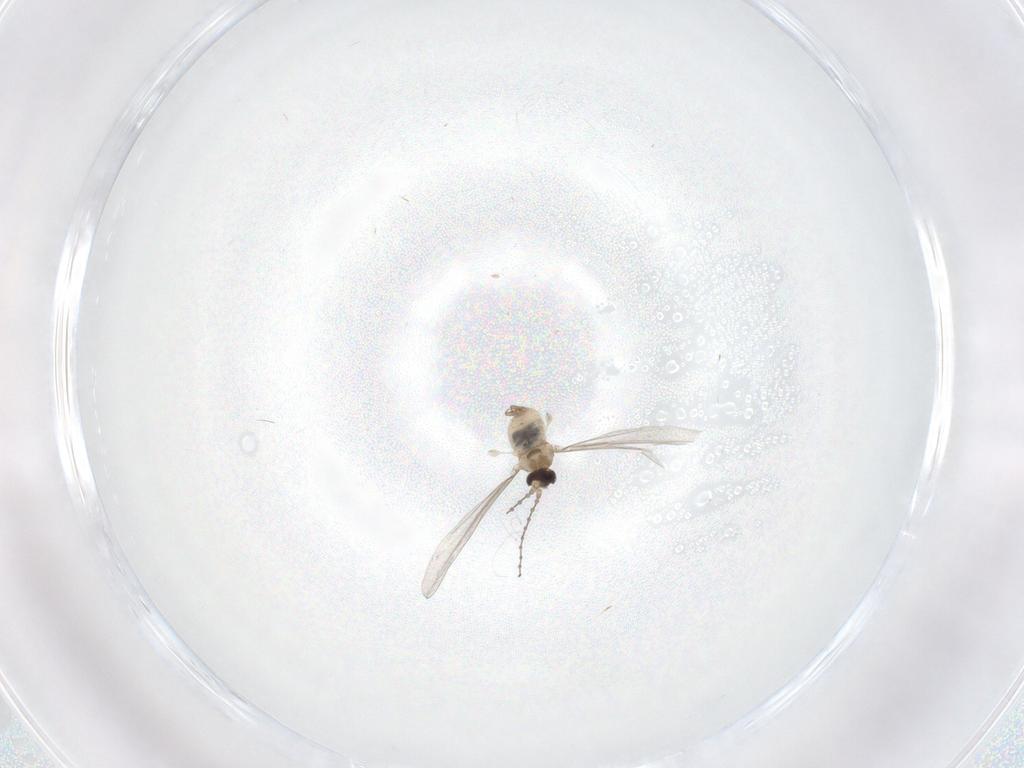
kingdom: Animalia
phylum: Arthropoda
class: Insecta
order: Diptera
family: Cecidomyiidae
